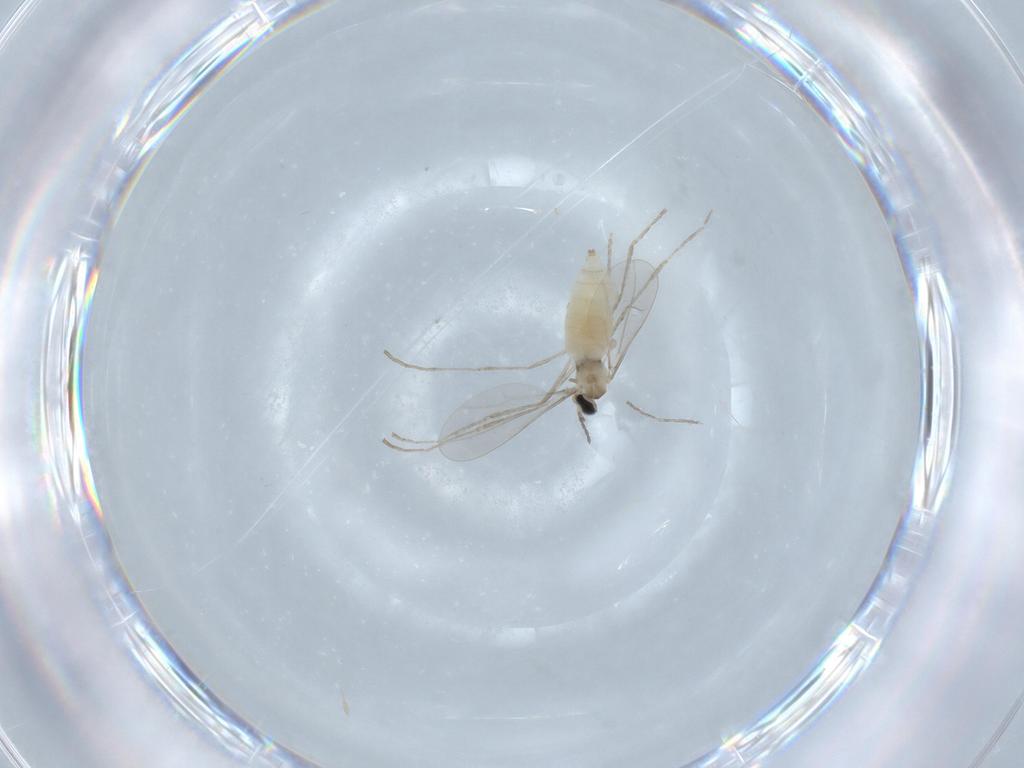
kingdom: Animalia
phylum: Arthropoda
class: Insecta
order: Diptera
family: Cecidomyiidae
